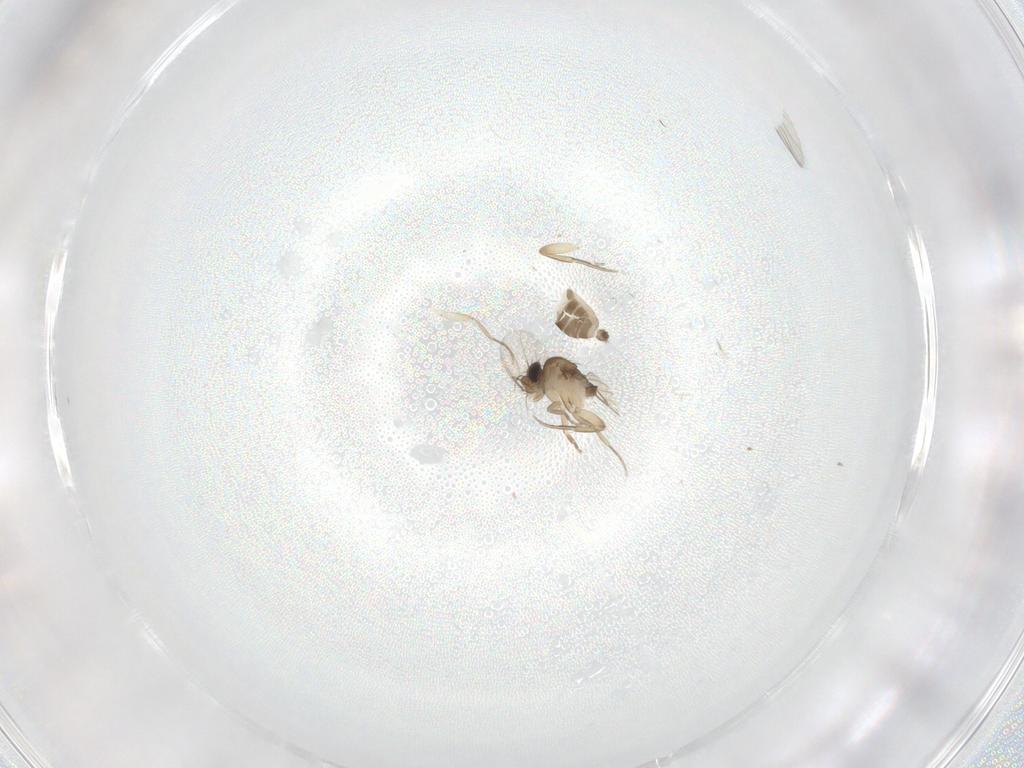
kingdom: Animalia
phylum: Arthropoda
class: Insecta
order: Diptera
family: Phoridae
